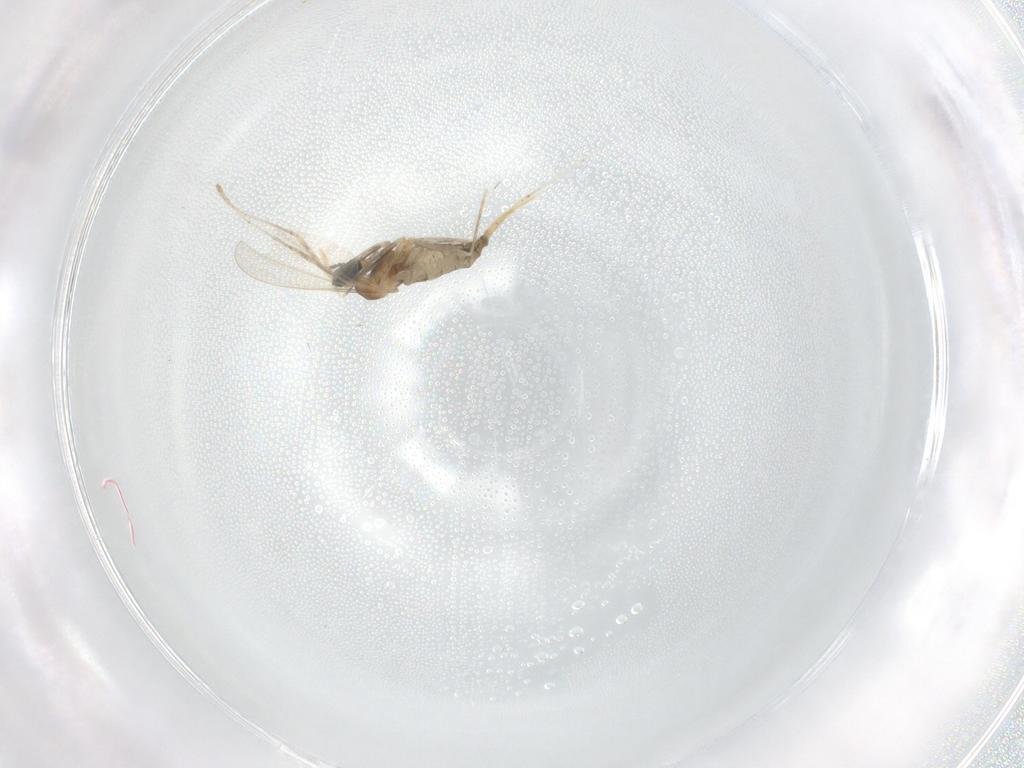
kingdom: Animalia
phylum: Arthropoda
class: Insecta
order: Diptera
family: Cecidomyiidae
